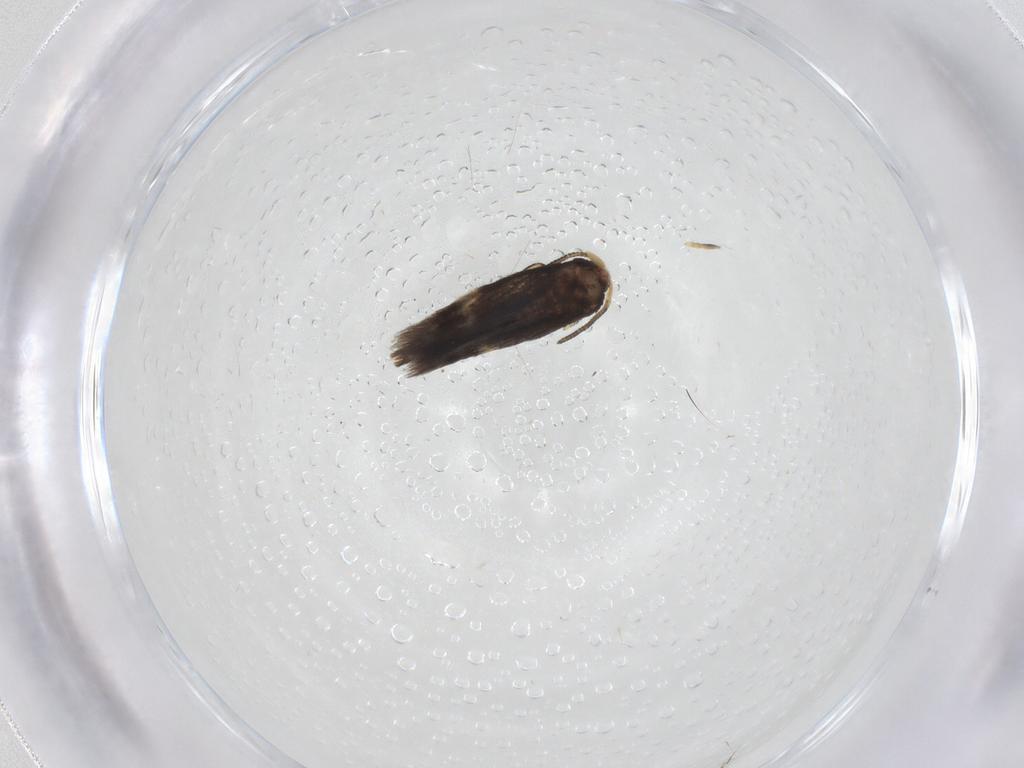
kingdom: Animalia
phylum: Arthropoda
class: Insecta
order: Lepidoptera
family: Nepticulidae
